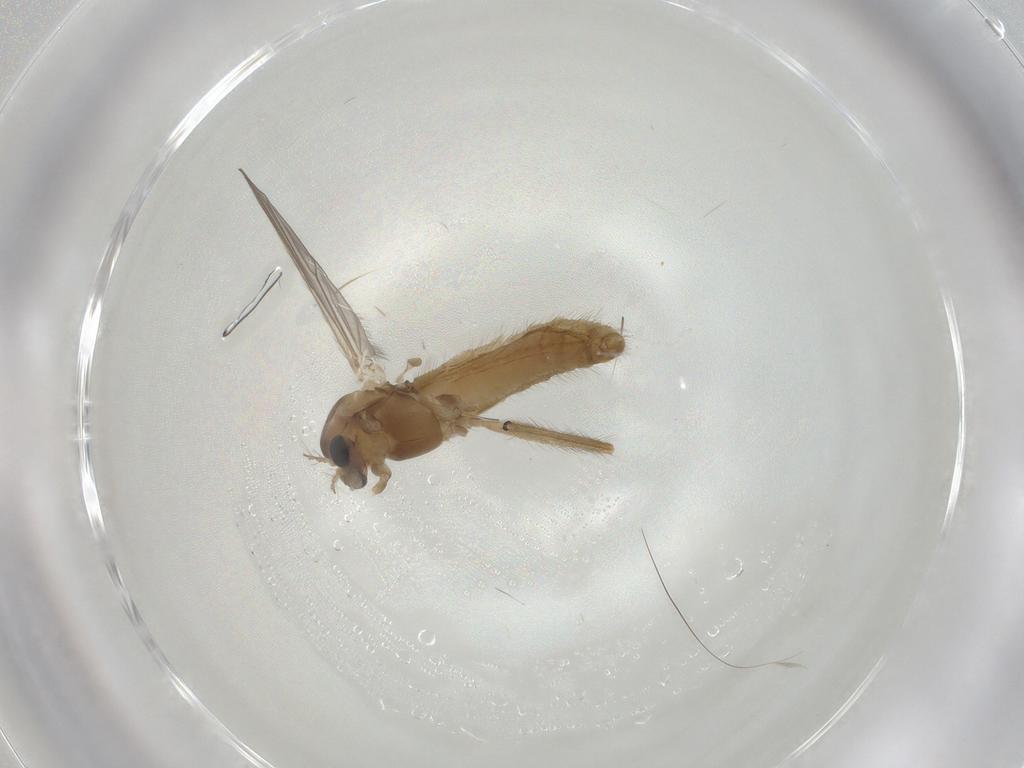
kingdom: Animalia
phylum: Arthropoda
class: Insecta
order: Diptera
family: Chironomidae
